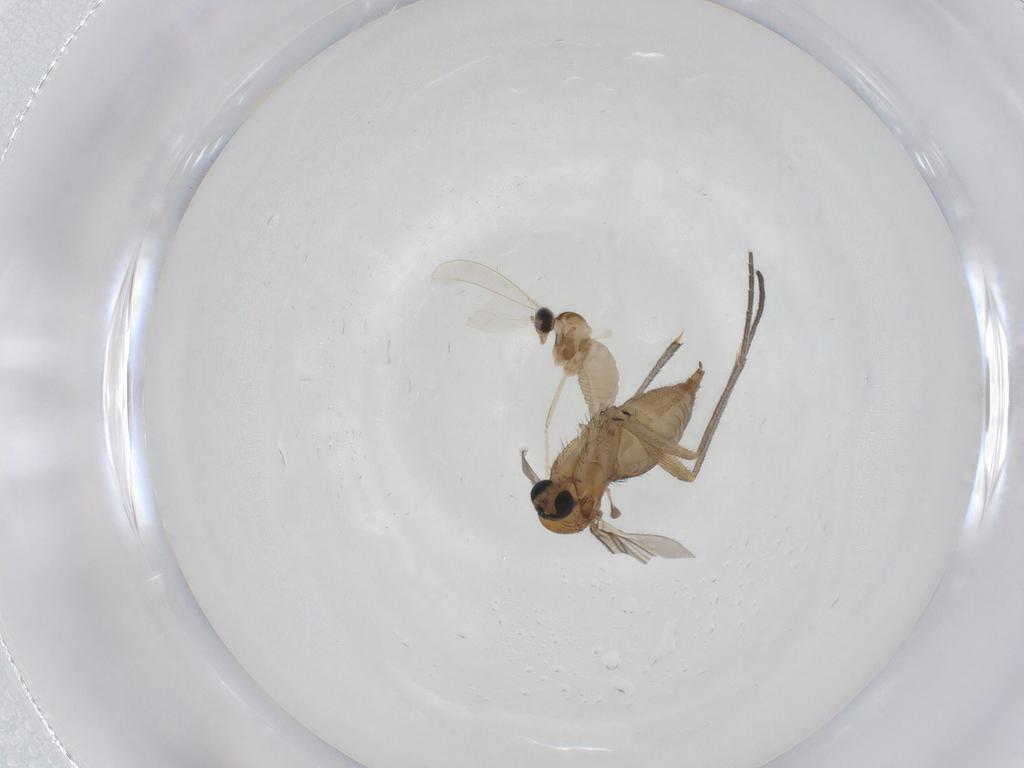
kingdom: Animalia
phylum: Arthropoda
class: Insecta
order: Diptera
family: Sciaridae
